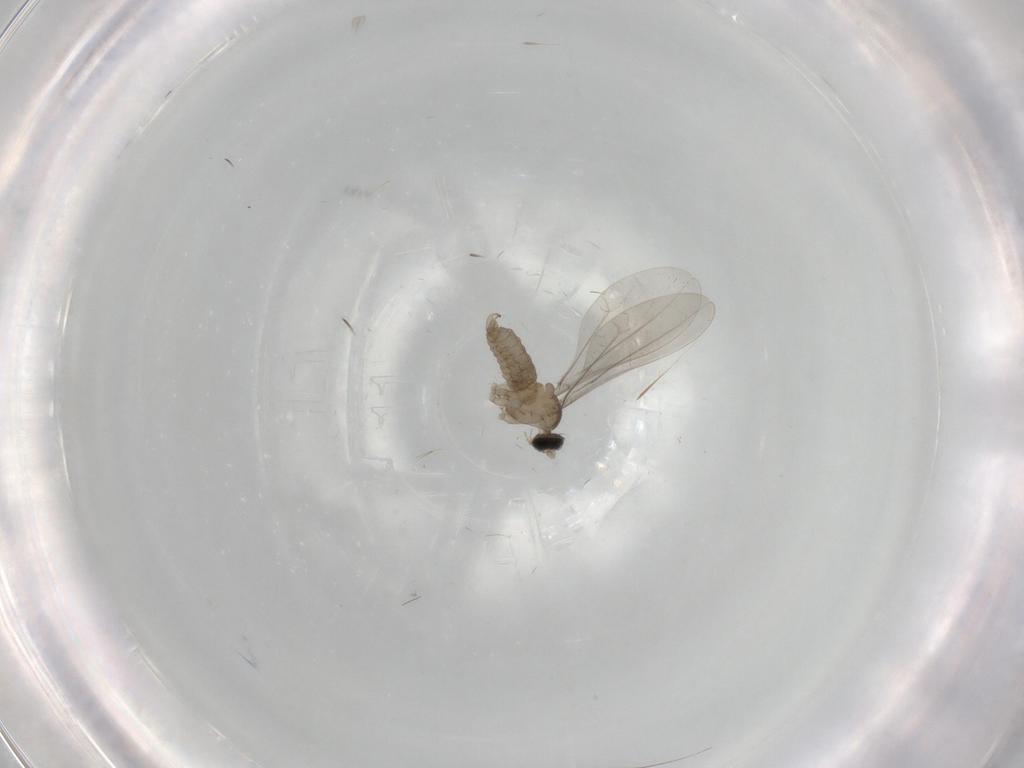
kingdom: Animalia
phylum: Arthropoda
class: Insecta
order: Diptera
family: Cecidomyiidae
